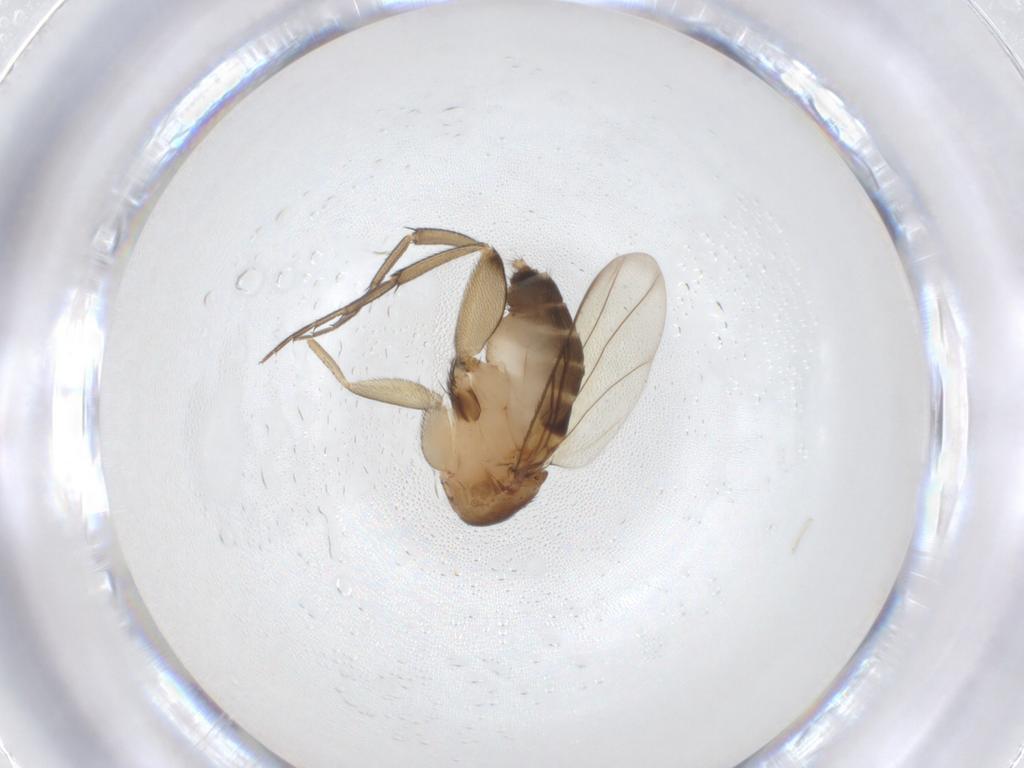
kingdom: Animalia
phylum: Arthropoda
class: Insecta
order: Diptera
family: Phoridae
